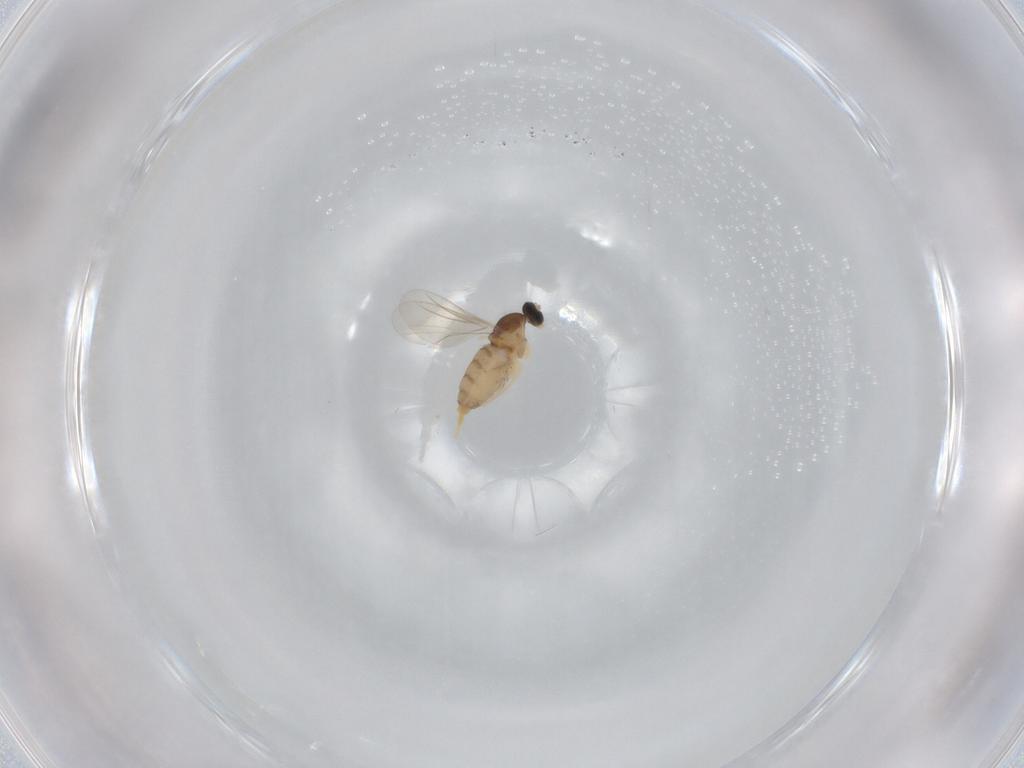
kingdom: Animalia
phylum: Arthropoda
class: Insecta
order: Diptera
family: Cecidomyiidae
